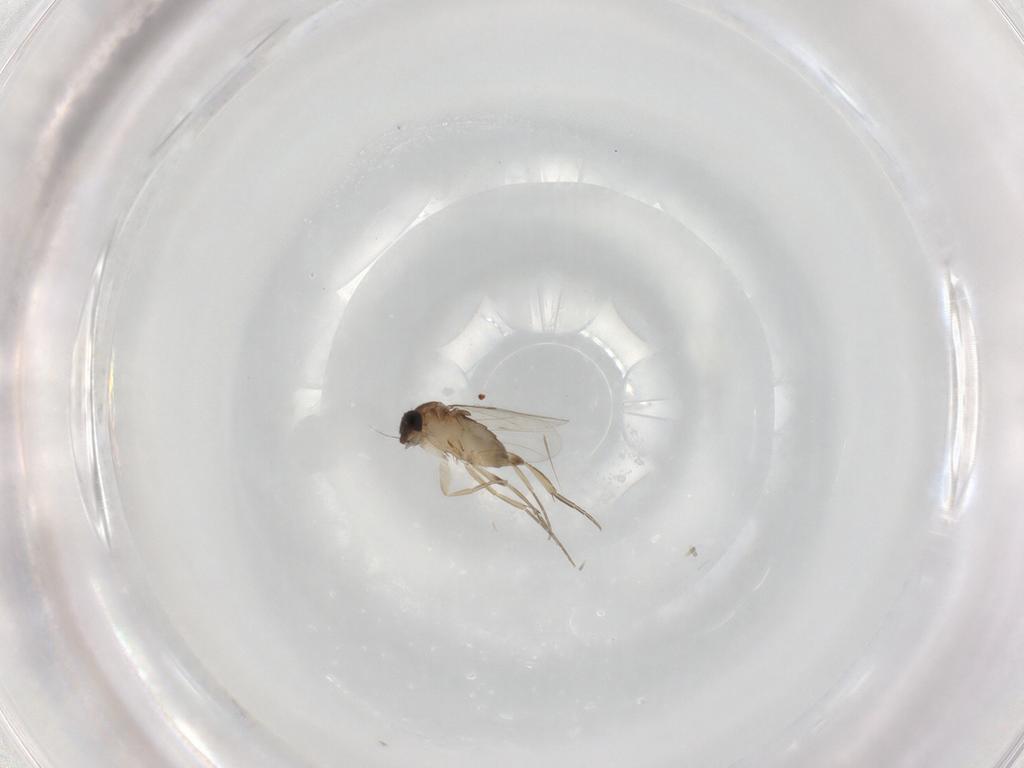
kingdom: Animalia
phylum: Arthropoda
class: Insecta
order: Diptera
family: Phoridae
